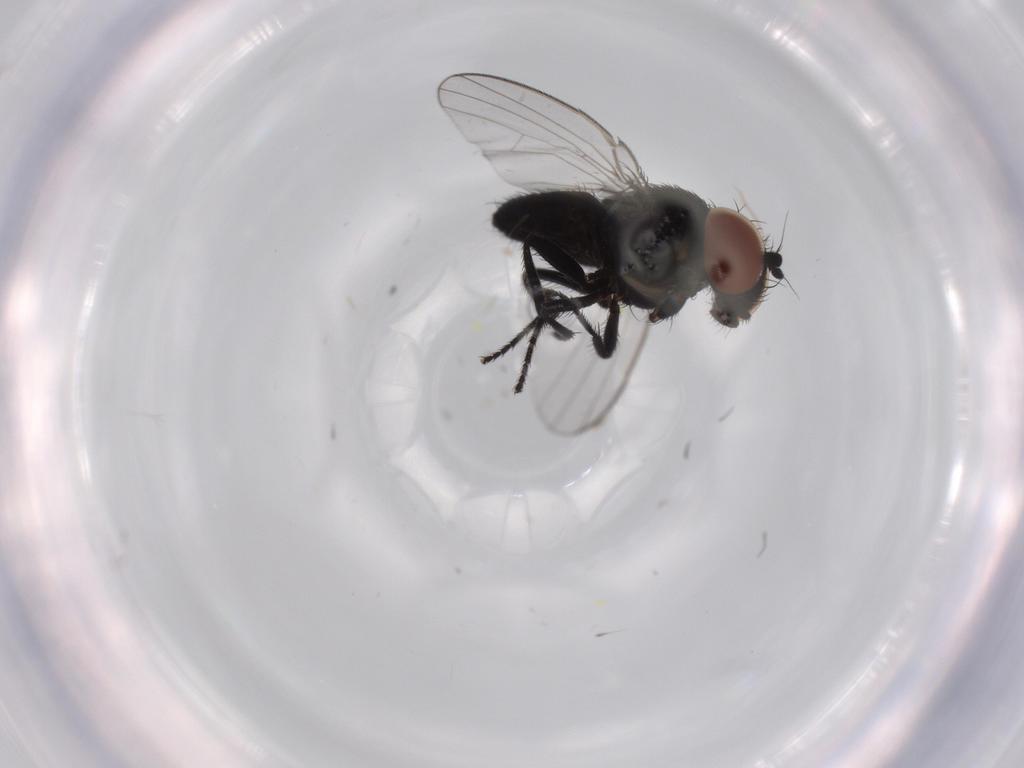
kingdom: Animalia
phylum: Arthropoda
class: Insecta
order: Diptera
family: Milichiidae
